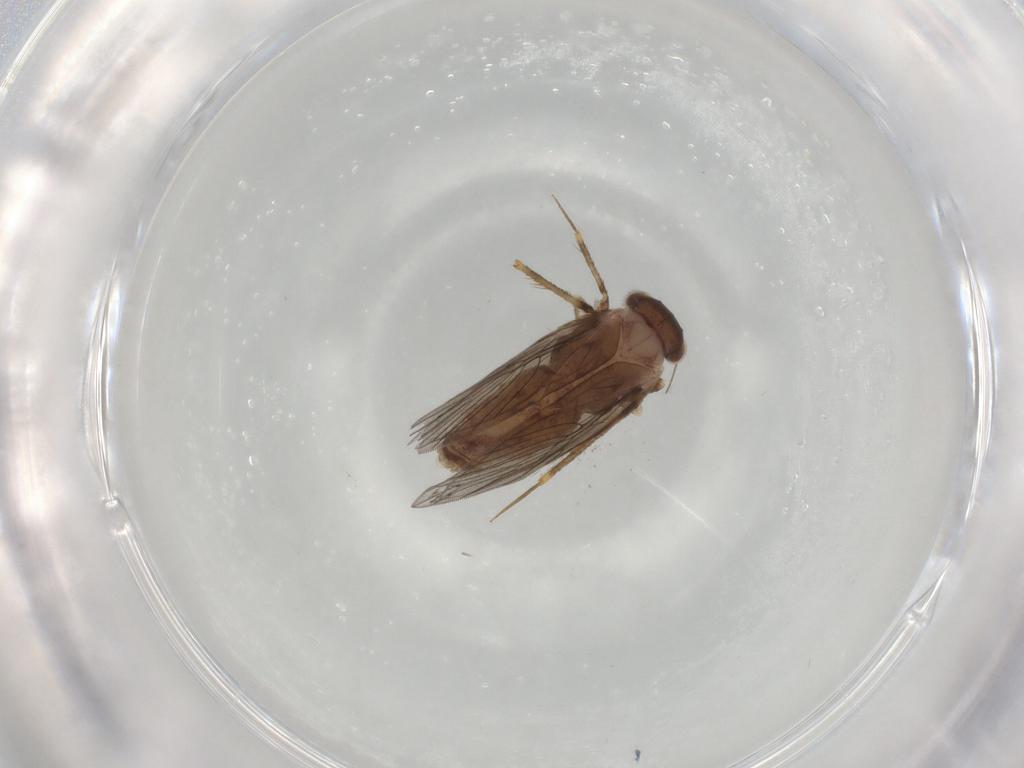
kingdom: Animalia
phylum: Arthropoda
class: Insecta
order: Psocodea
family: Lepidopsocidae
